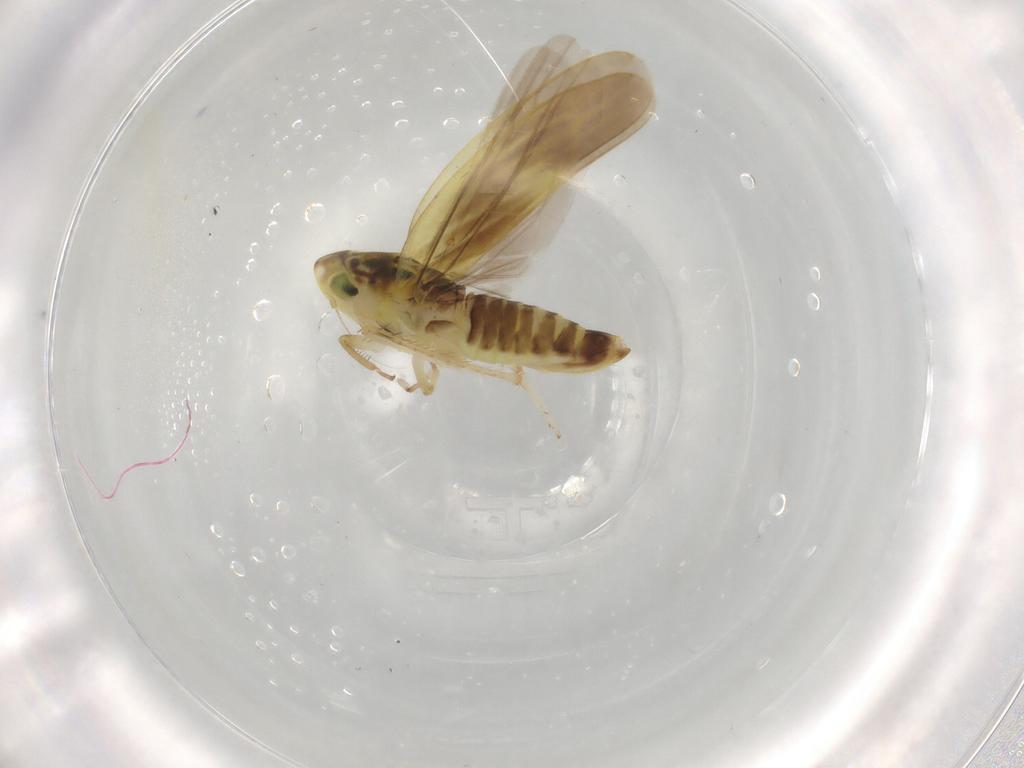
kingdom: Animalia
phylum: Arthropoda
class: Insecta
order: Hemiptera
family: Cicadellidae
